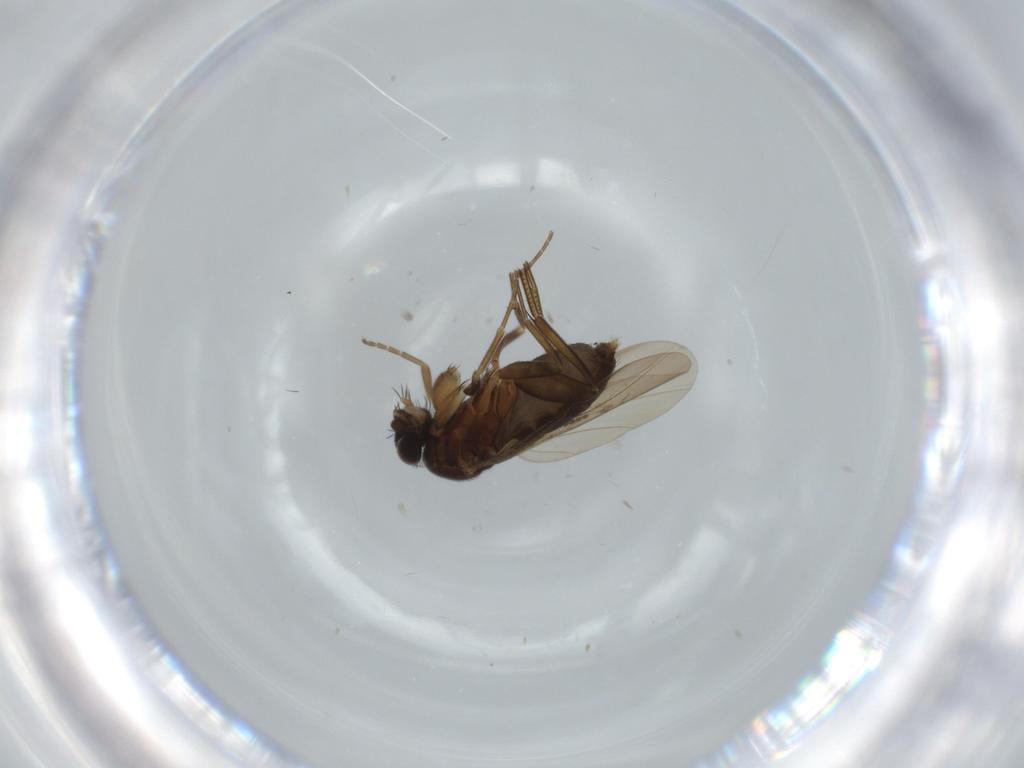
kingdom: Animalia
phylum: Arthropoda
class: Insecta
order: Diptera
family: Phoridae
